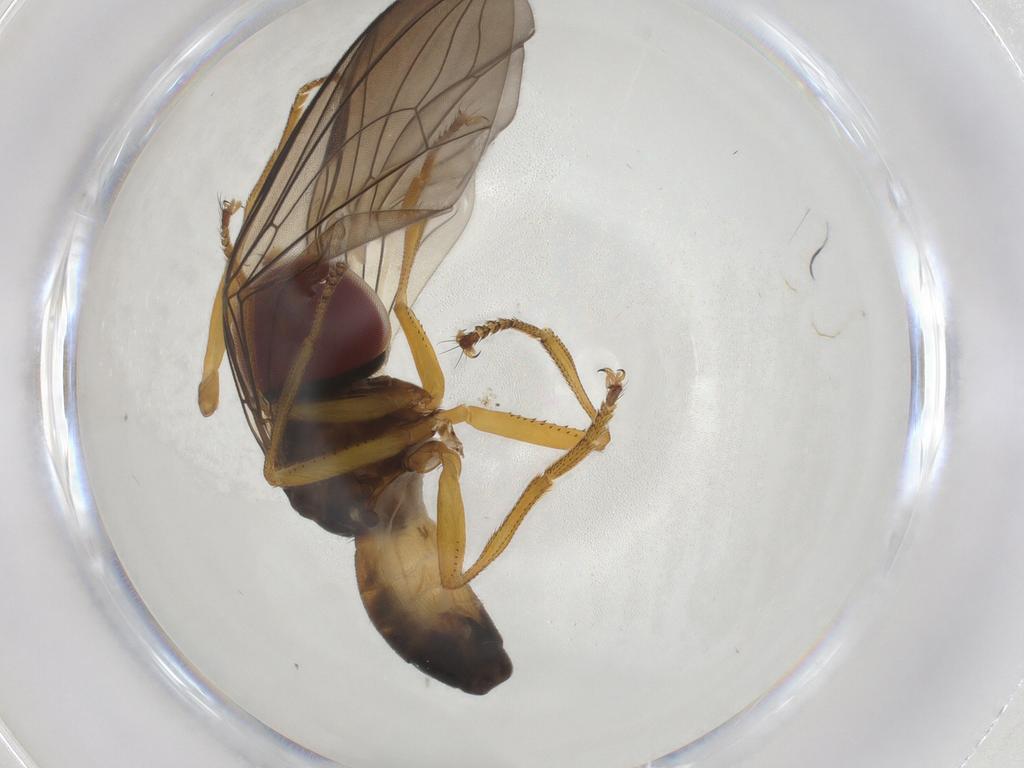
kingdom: Animalia
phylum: Arthropoda
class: Insecta
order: Diptera
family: Pipunculidae
